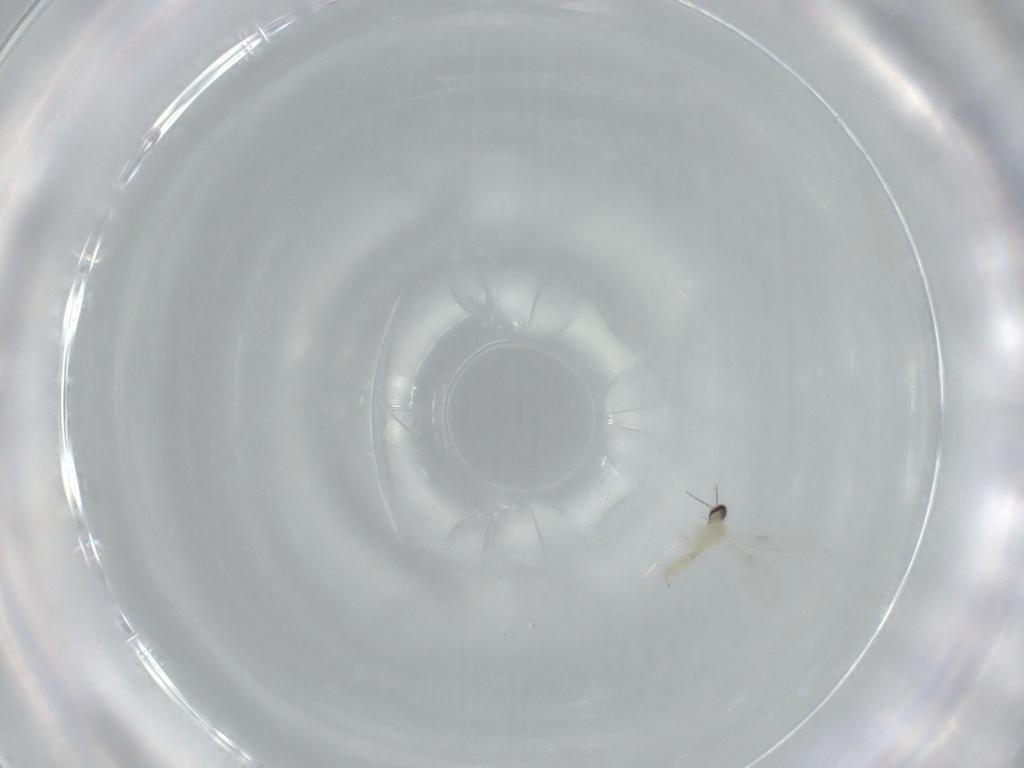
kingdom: Animalia
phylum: Arthropoda
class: Insecta
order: Diptera
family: Cecidomyiidae
